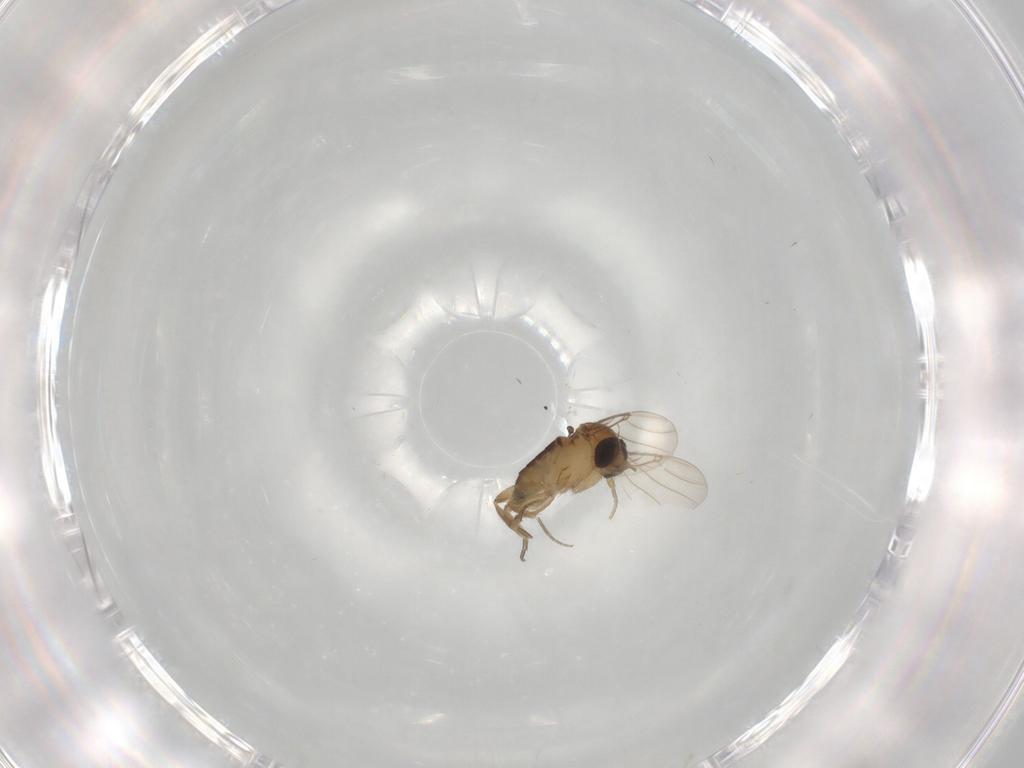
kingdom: Animalia
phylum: Arthropoda
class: Insecta
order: Diptera
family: Phoridae
